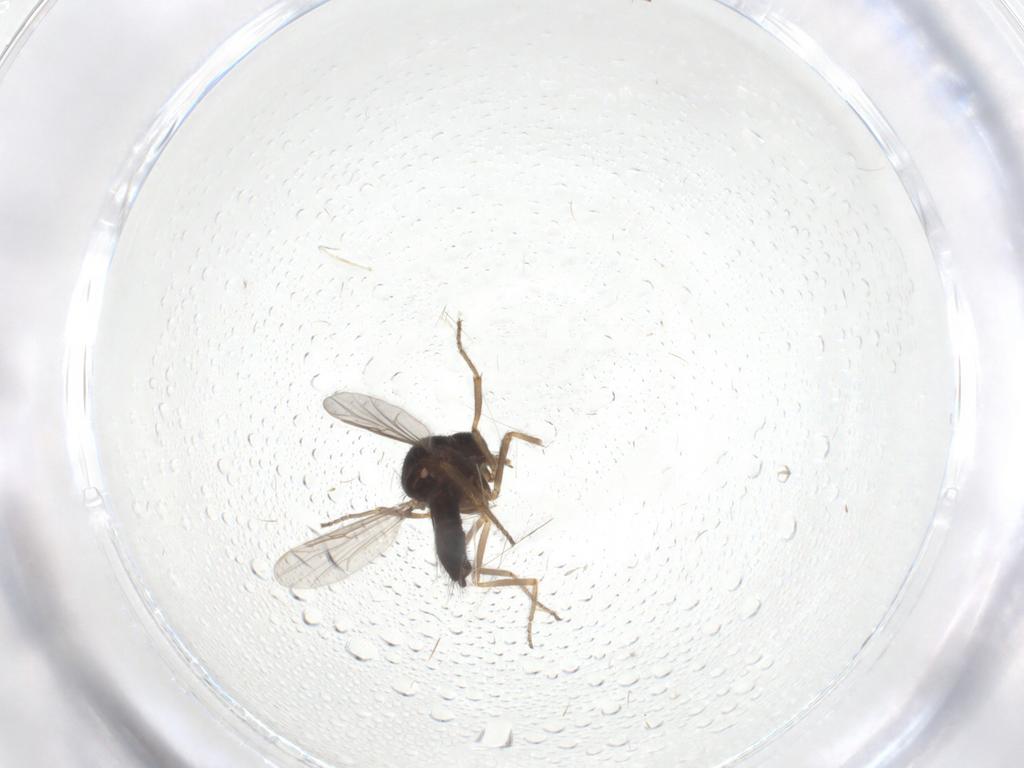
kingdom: Animalia
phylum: Arthropoda
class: Insecta
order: Diptera
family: Ceratopogonidae
